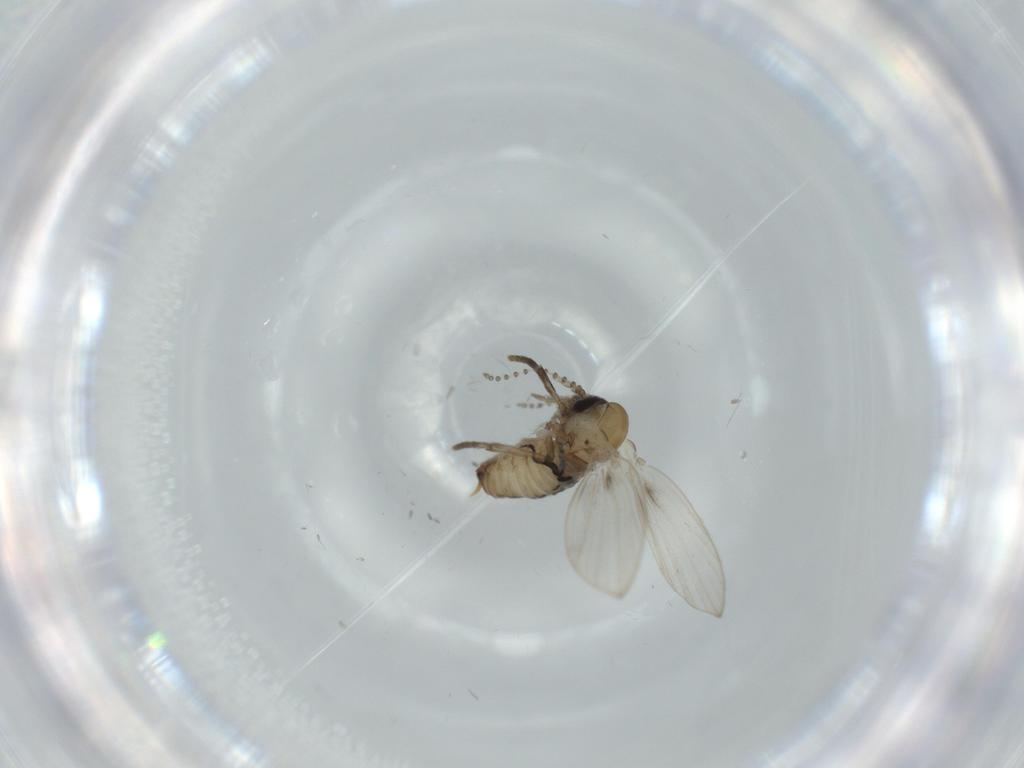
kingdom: Animalia
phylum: Arthropoda
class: Insecta
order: Diptera
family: Psychodidae
